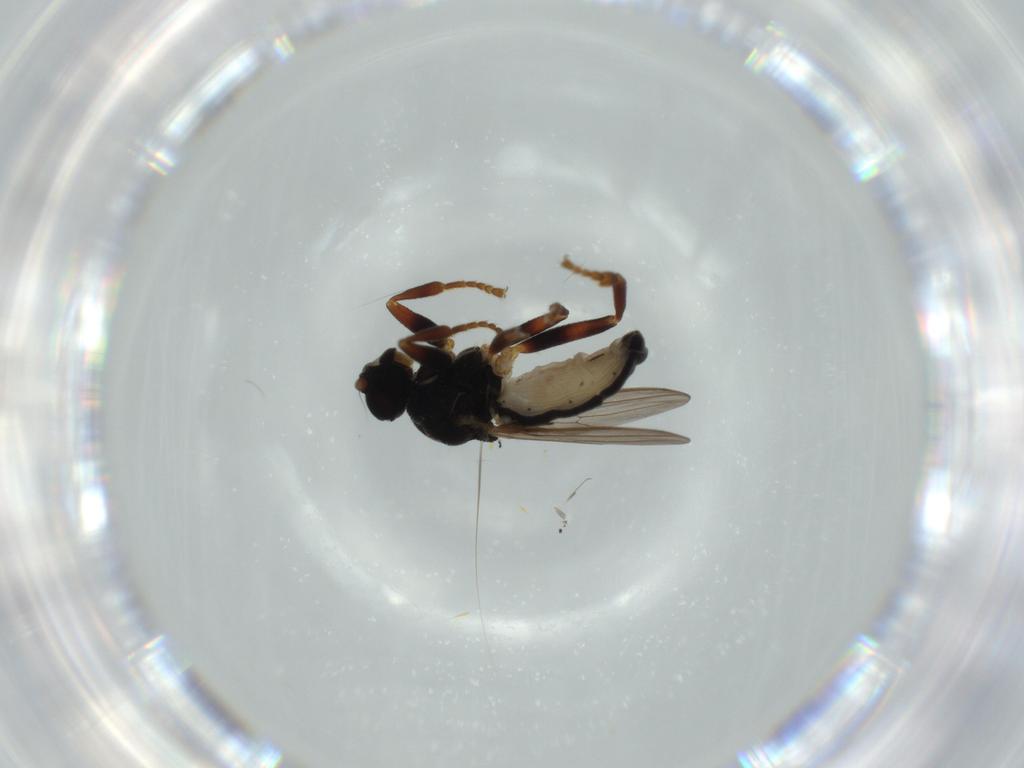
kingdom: Animalia
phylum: Arthropoda
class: Insecta
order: Diptera
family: Sphaeroceridae
